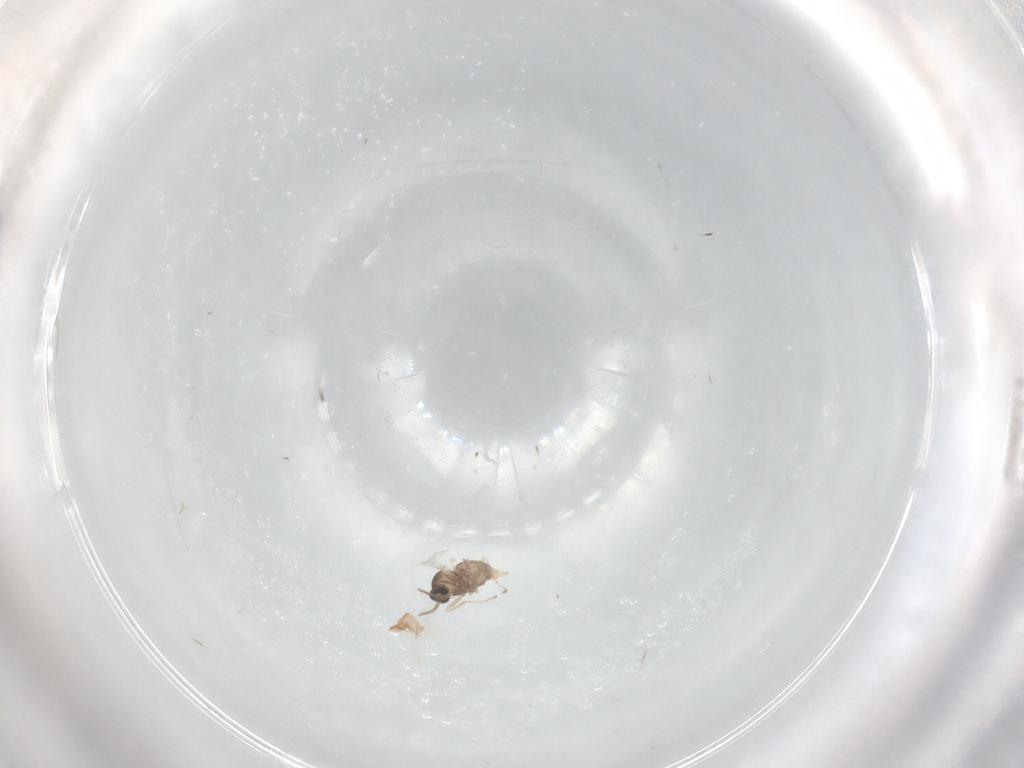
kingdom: Animalia
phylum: Arthropoda
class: Insecta
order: Diptera
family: Cecidomyiidae
